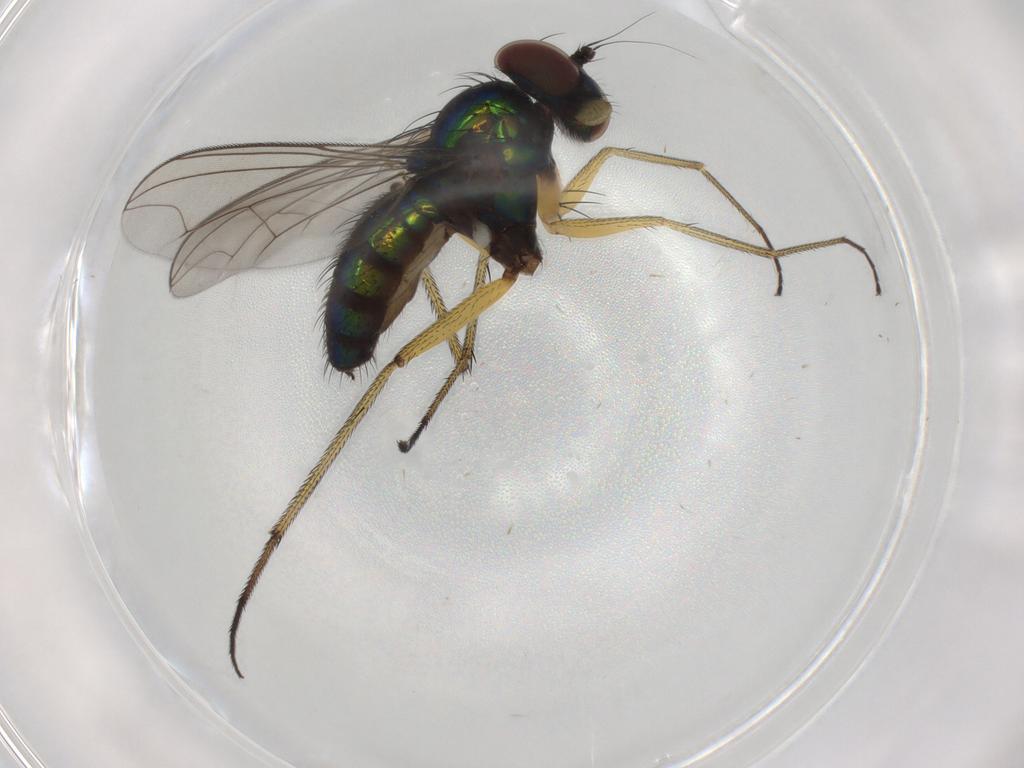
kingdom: Animalia
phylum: Arthropoda
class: Insecta
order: Diptera
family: Dolichopodidae
